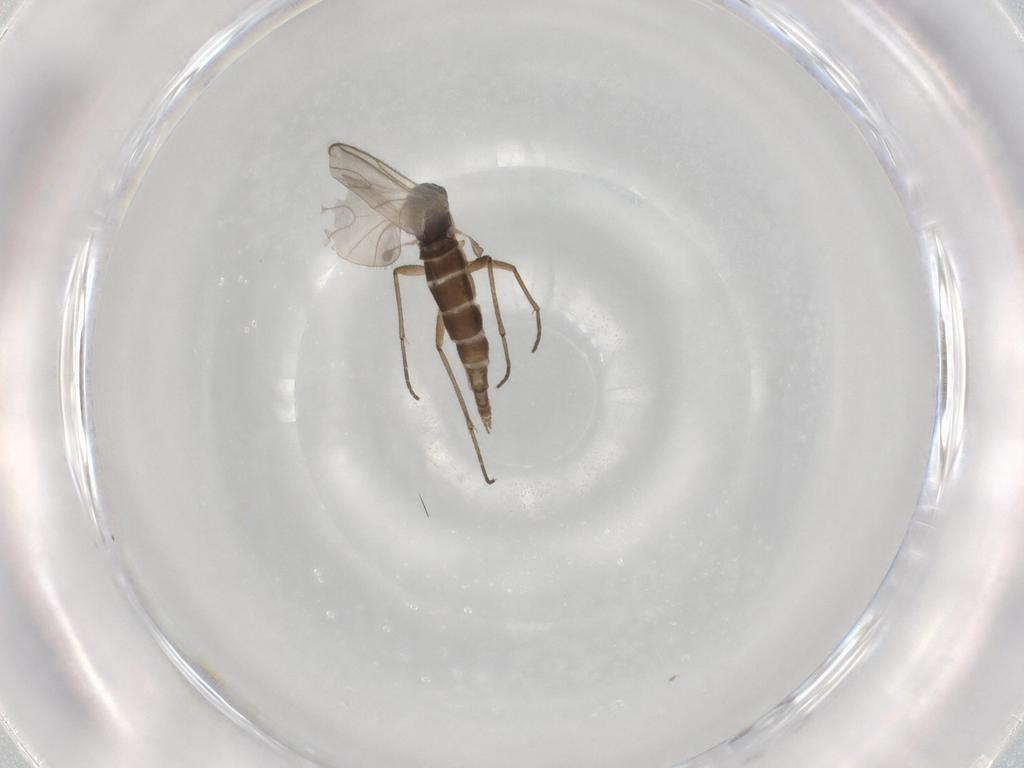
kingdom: Animalia
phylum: Arthropoda
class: Insecta
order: Diptera
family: Sciaridae
